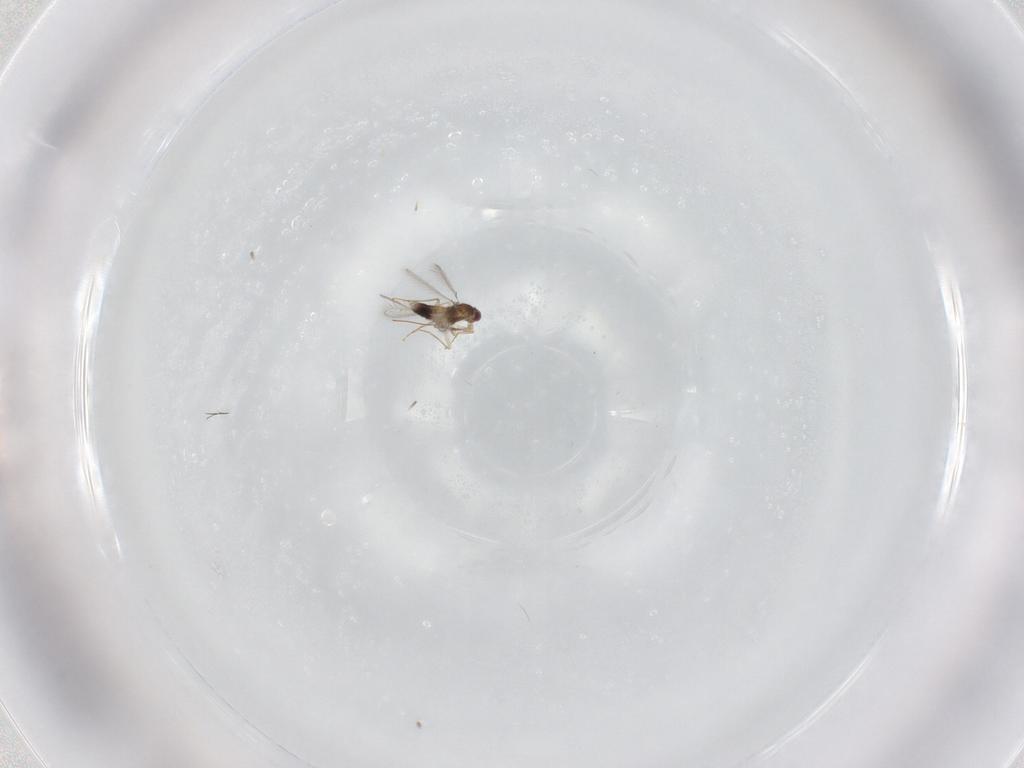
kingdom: Animalia
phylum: Arthropoda
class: Insecta
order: Hymenoptera
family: Mymaridae
